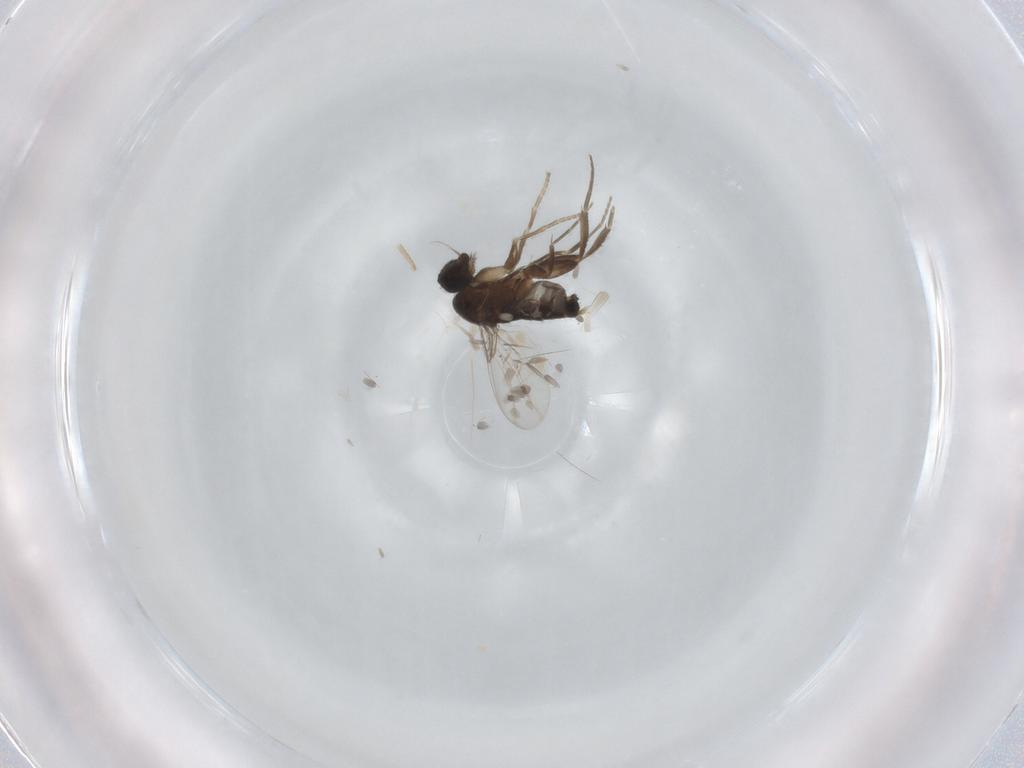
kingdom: Animalia
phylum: Arthropoda
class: Insecta
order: Diptera
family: Phoridae
